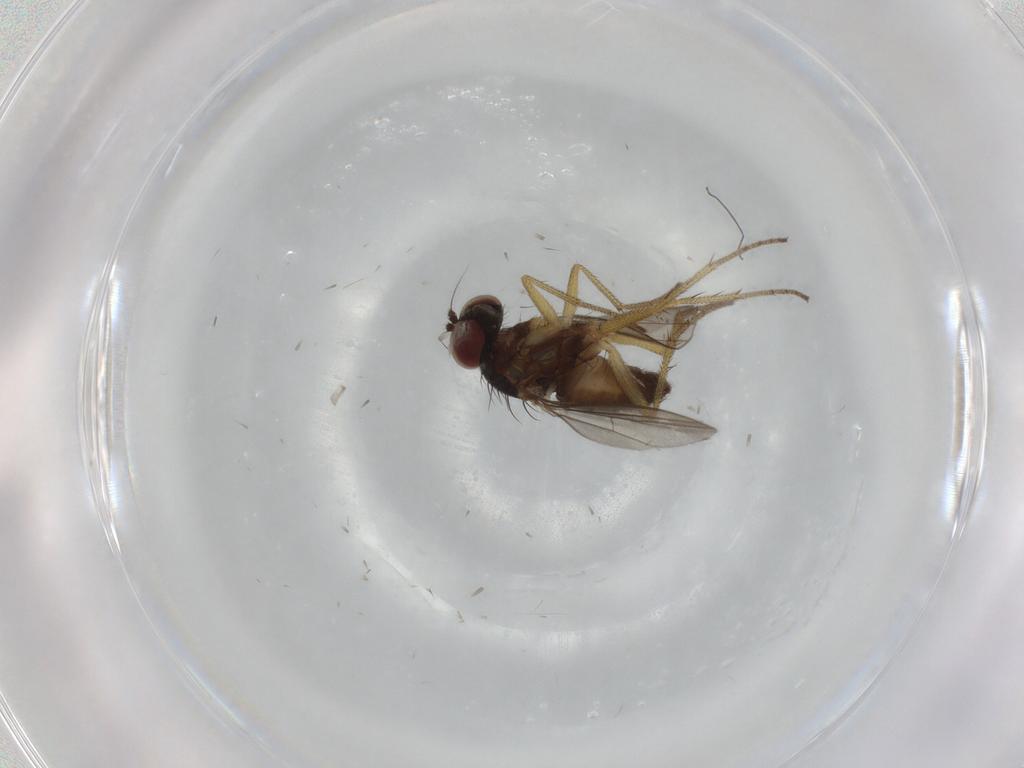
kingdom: Animalia
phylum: Arthropoda
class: Insecta
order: Diptera
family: Dolichopodidae
